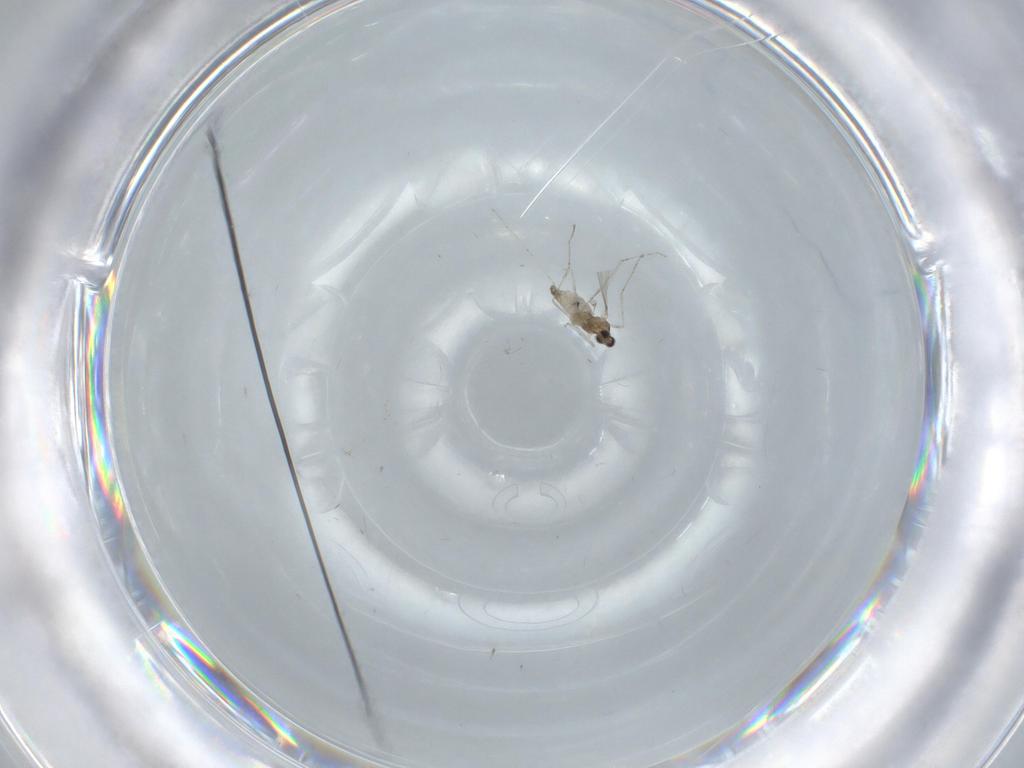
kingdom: Animalia
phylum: Arthropoda
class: Insecta
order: Diptera
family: Cecidomyiidae
